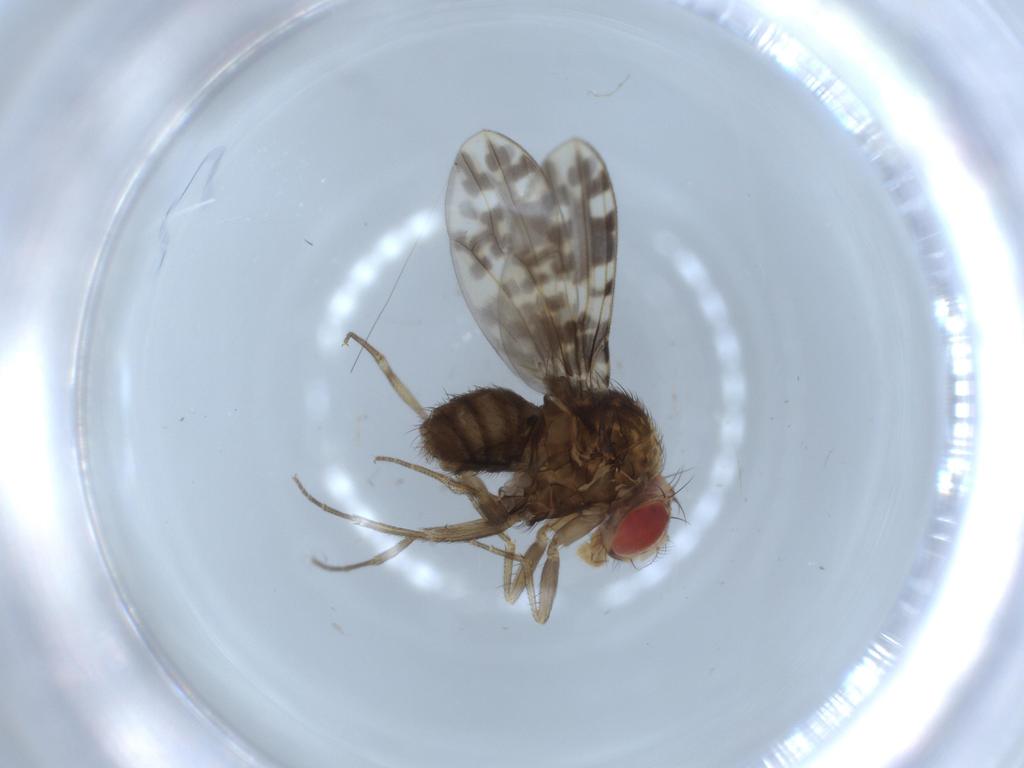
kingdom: Animalia
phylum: Arthropoda
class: Insecta
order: Diptera
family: Drosophilidae
